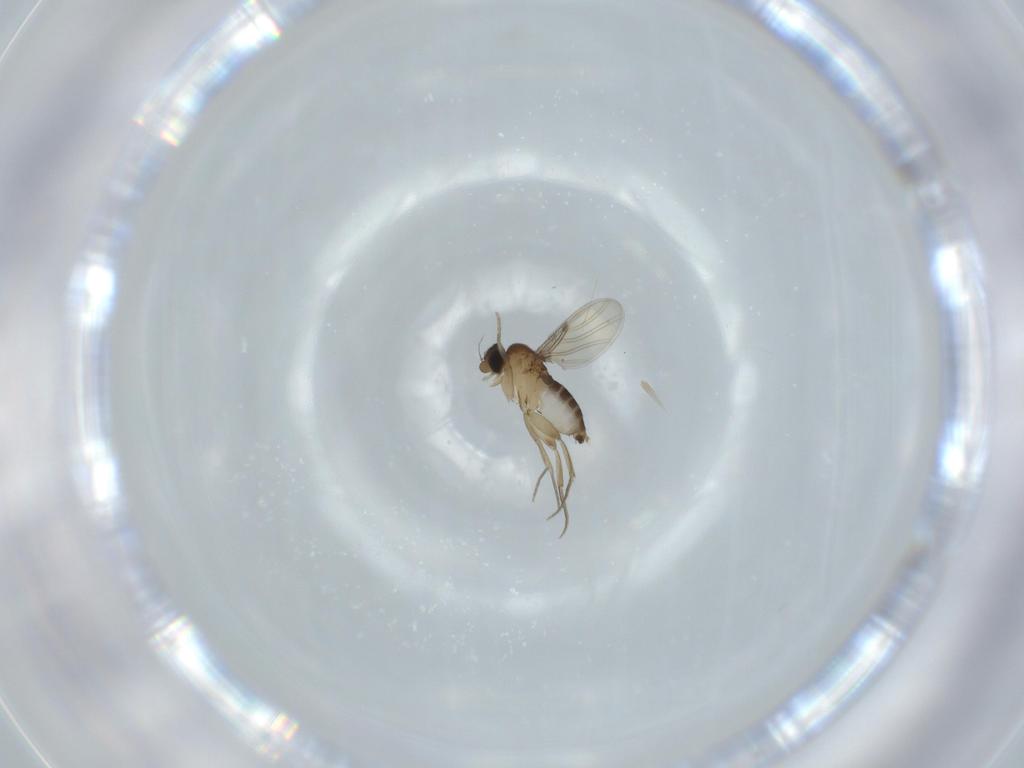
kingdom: Animalia
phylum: Arthropoda
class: Insecta
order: Diptera
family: Phoridae
